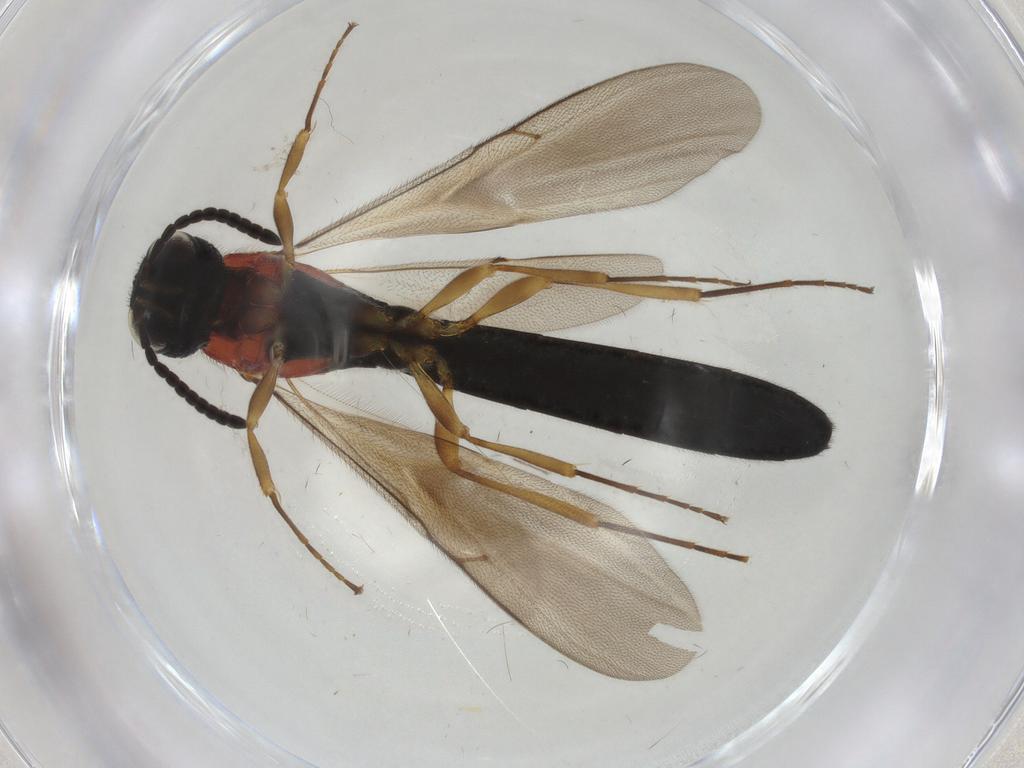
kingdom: Animalia
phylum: Arthropoda
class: Insecta
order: Hymenoptera
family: Scelionidae
